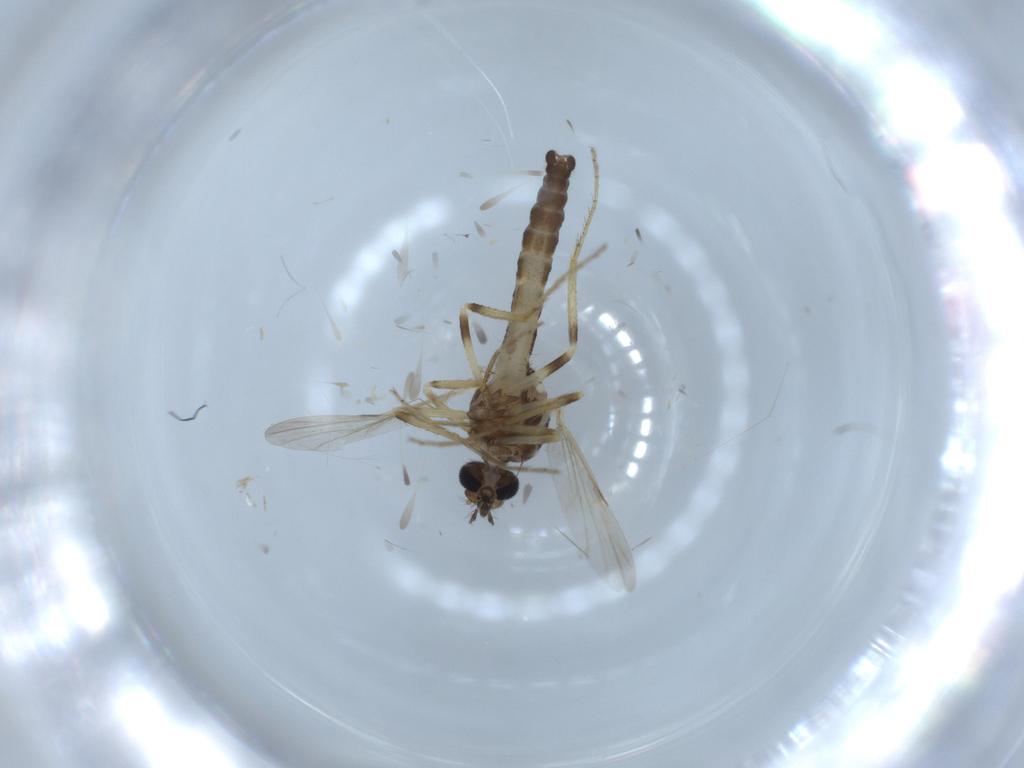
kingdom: Animalia
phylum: Arthropoda
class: Insecta
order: Diptera
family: Ceratopogonidae
